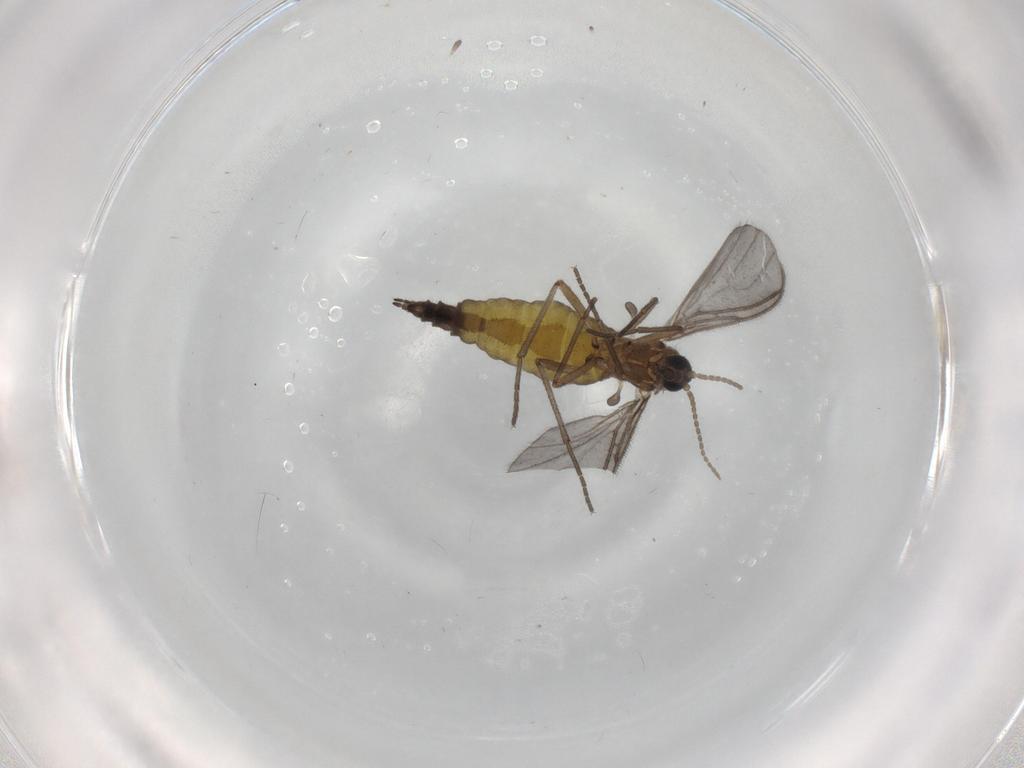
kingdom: Animalia
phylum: Arthropoda
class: Insecta
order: Diptera
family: Sciaridae
